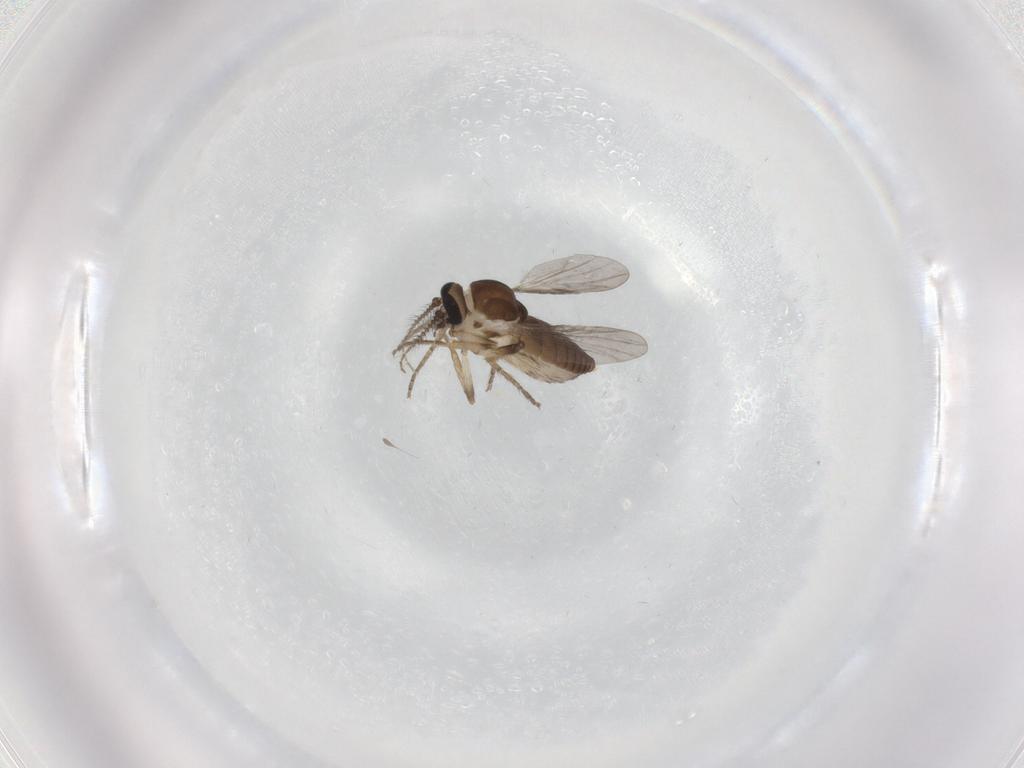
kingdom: Animalia
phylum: Arthropoda
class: Insecta
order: Diptera
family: Ceratopogonidae
